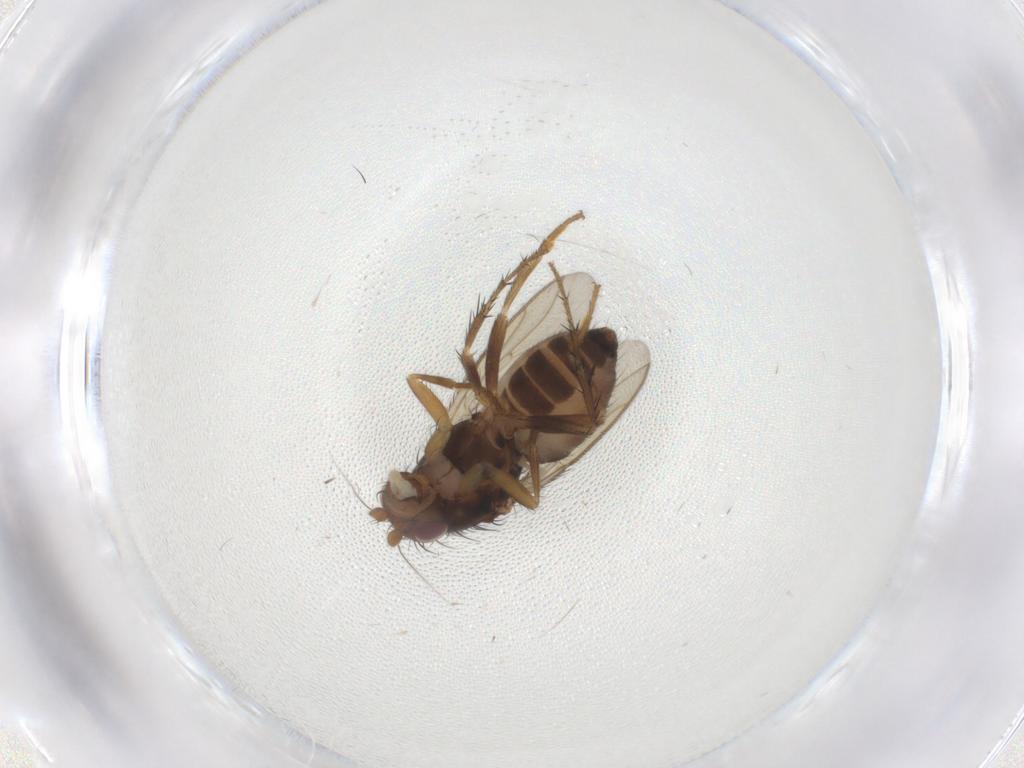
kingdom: Animalia
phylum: Arthropoda
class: Insecta
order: Diptera
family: Sphaeroceridae
